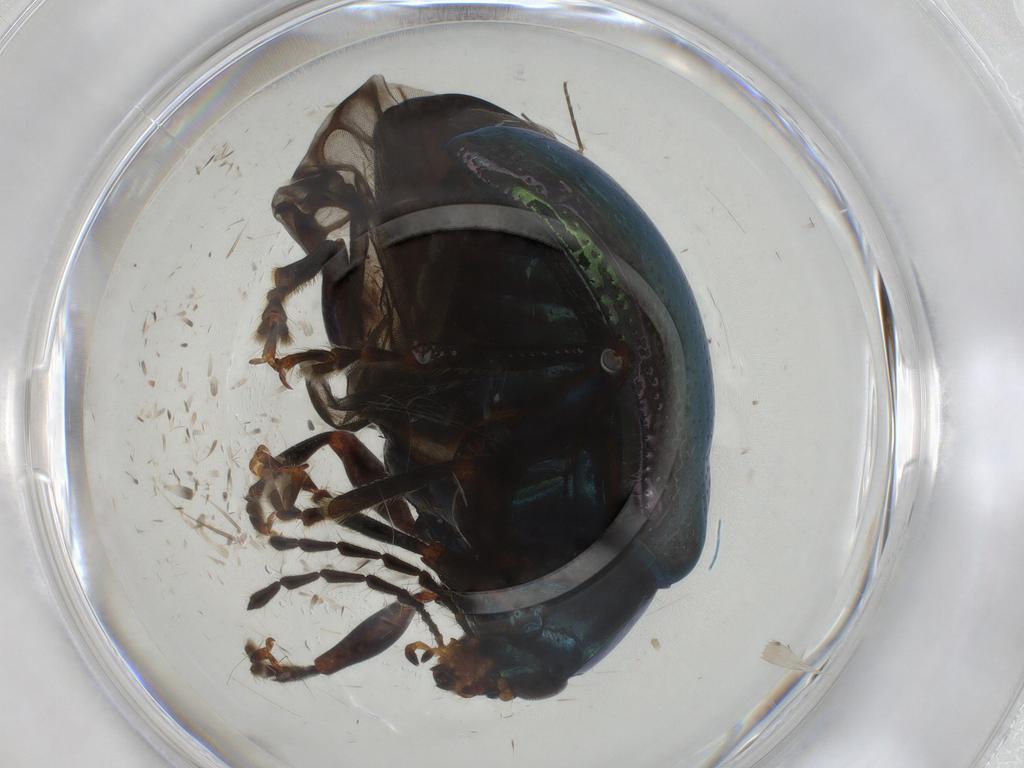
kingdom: Animalia
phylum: Arthropoda
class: Insecta
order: Coleoptera
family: Chrysomelidae
